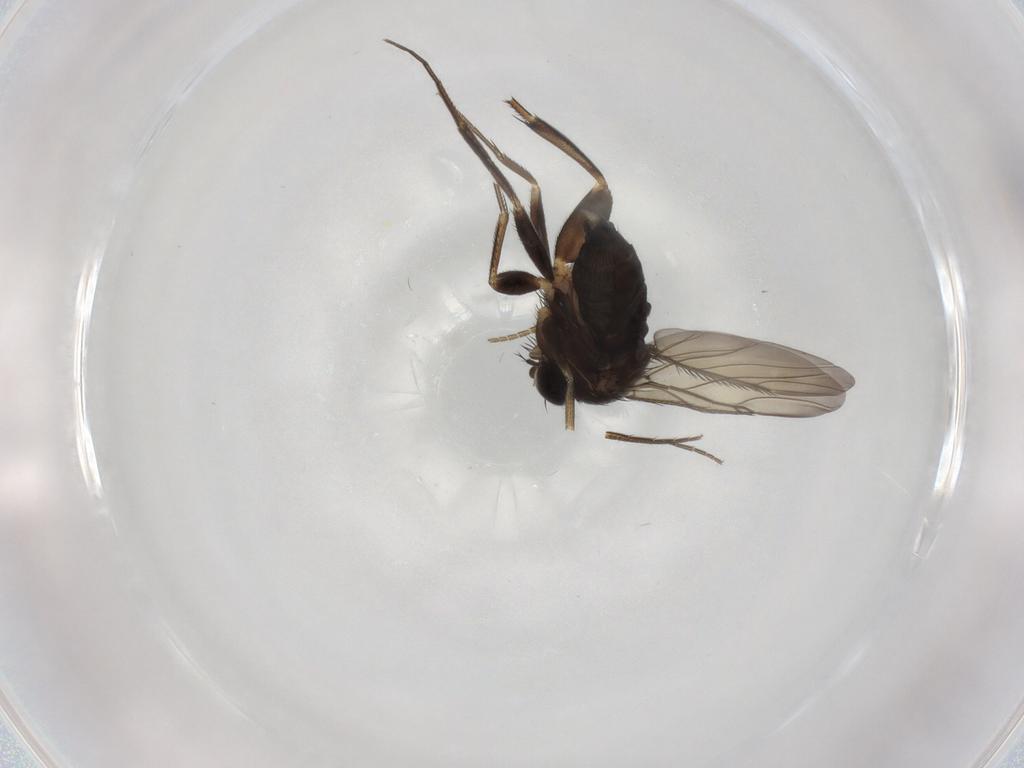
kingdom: Animalia
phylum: Arthropoda
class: Insecta
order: Diptera
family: Phoridae
